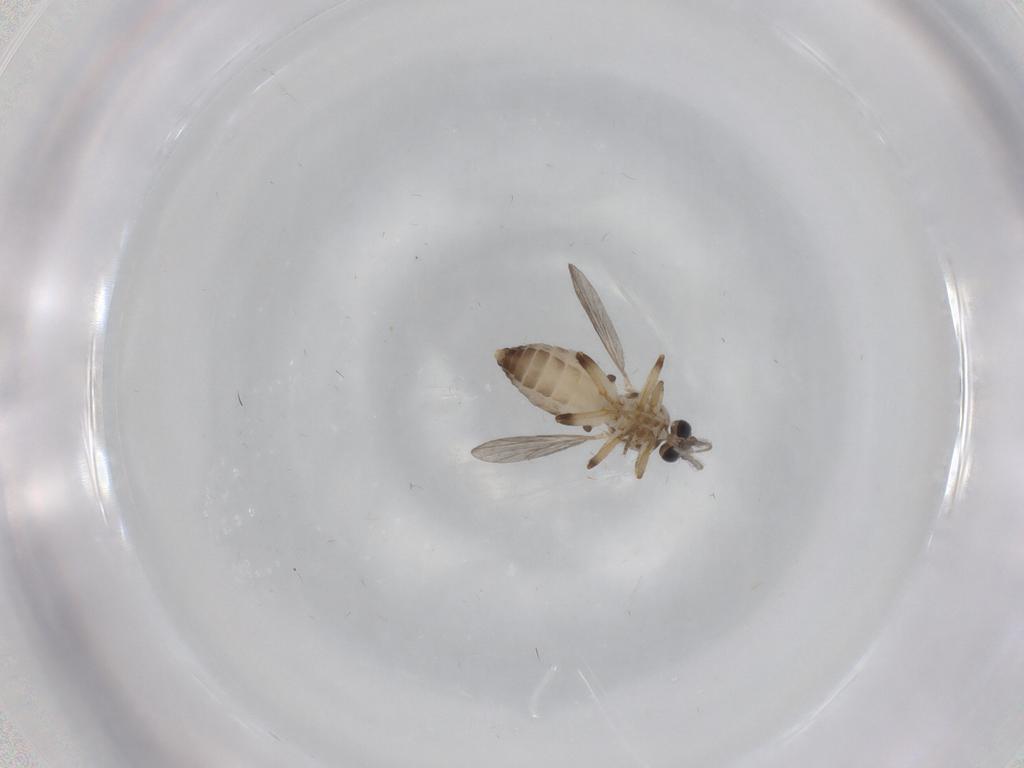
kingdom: Animalia
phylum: Arthropoda
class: Insecta
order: Diptera
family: Ceratopogonidae
